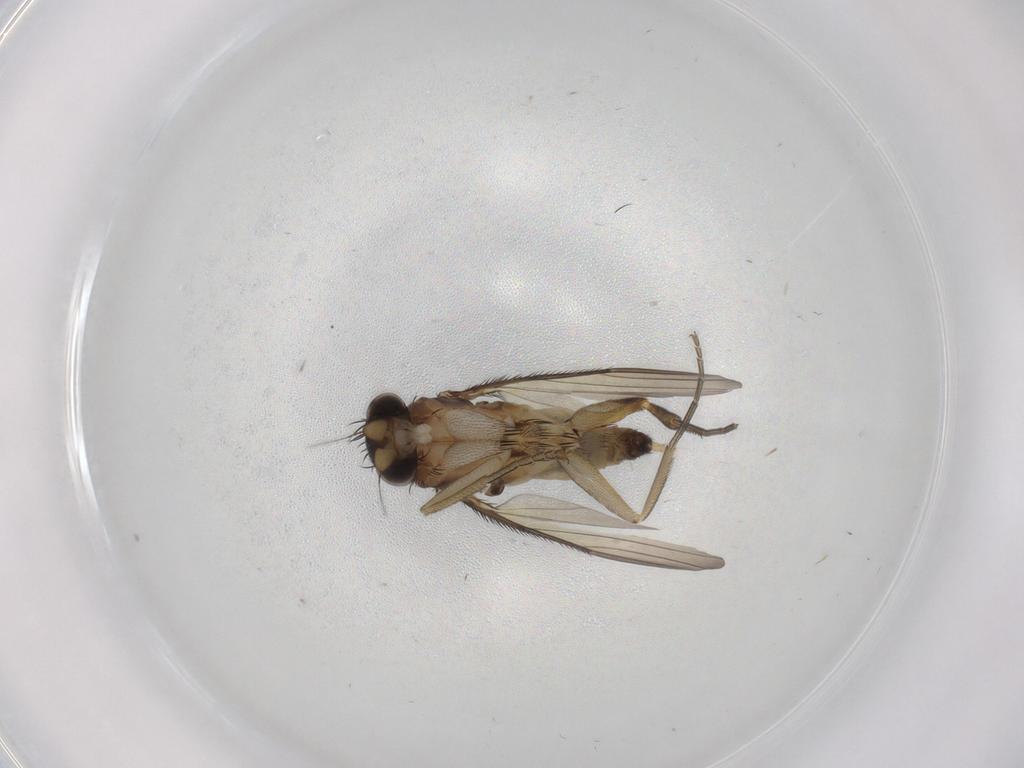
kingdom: Animalia
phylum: Arthropoda
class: Insecta
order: Diptera
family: Phoridae
